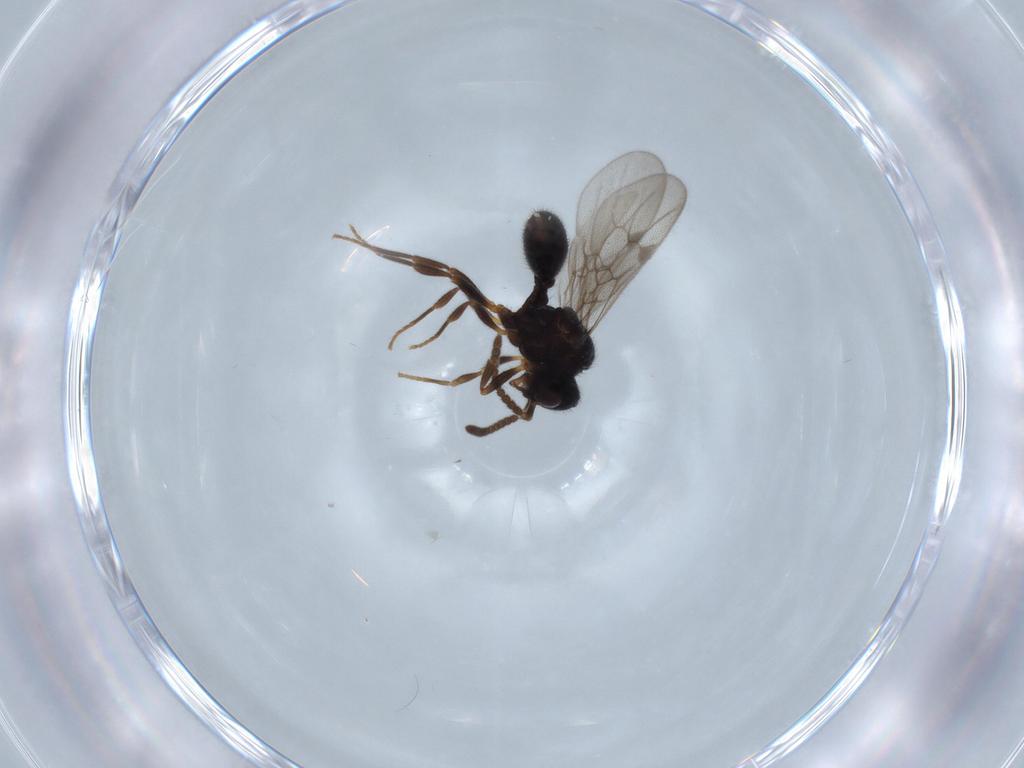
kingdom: Animalia
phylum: Arthropoda
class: Insecta
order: Hymenoptera
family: Formicidae
